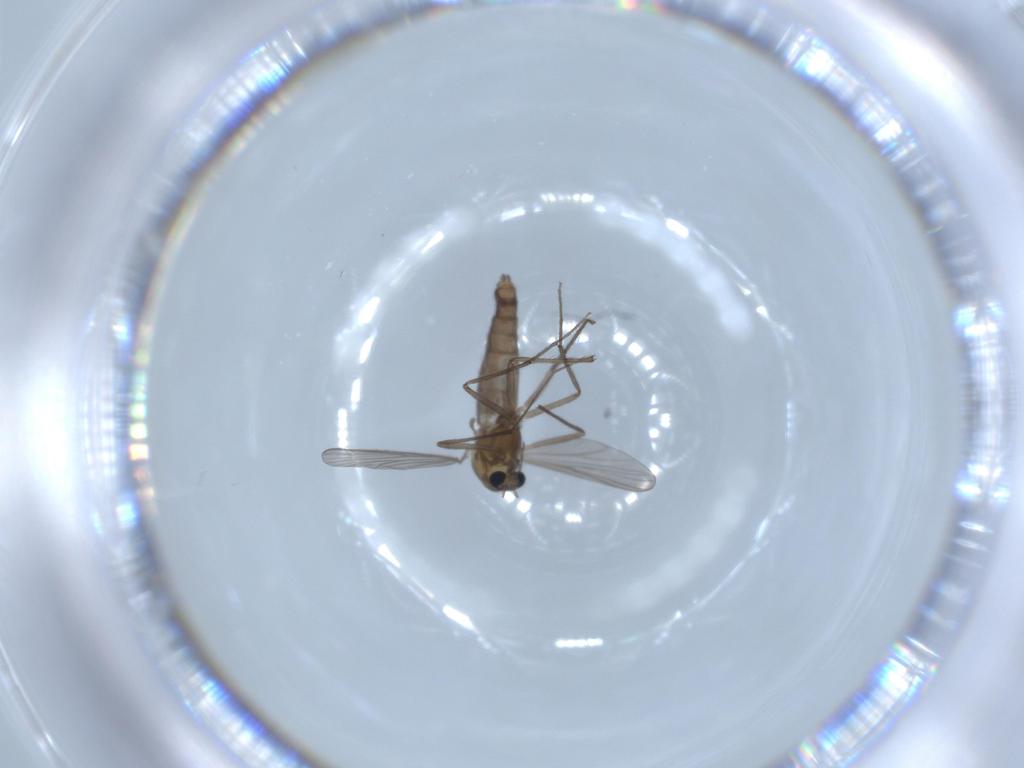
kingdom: Animalia
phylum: Arthropoda
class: Insecta
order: Diptera
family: Chironomidae
